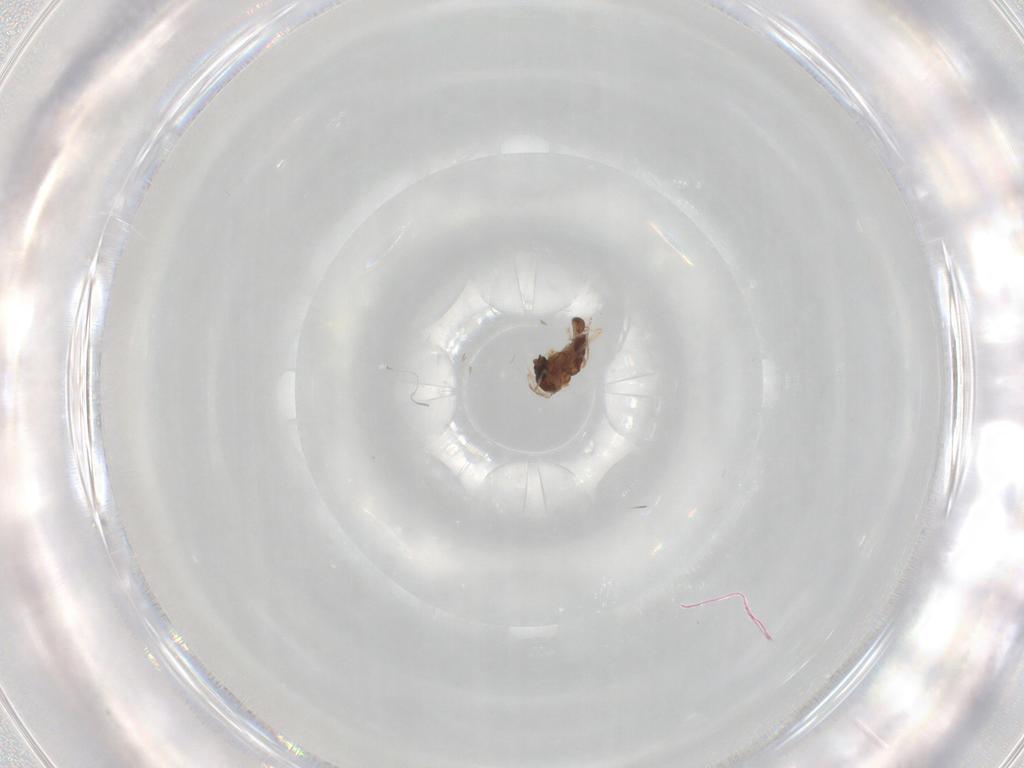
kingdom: Animalia
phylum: Arthropoda
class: Insecta
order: Diptera
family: Ceratopogonidae
